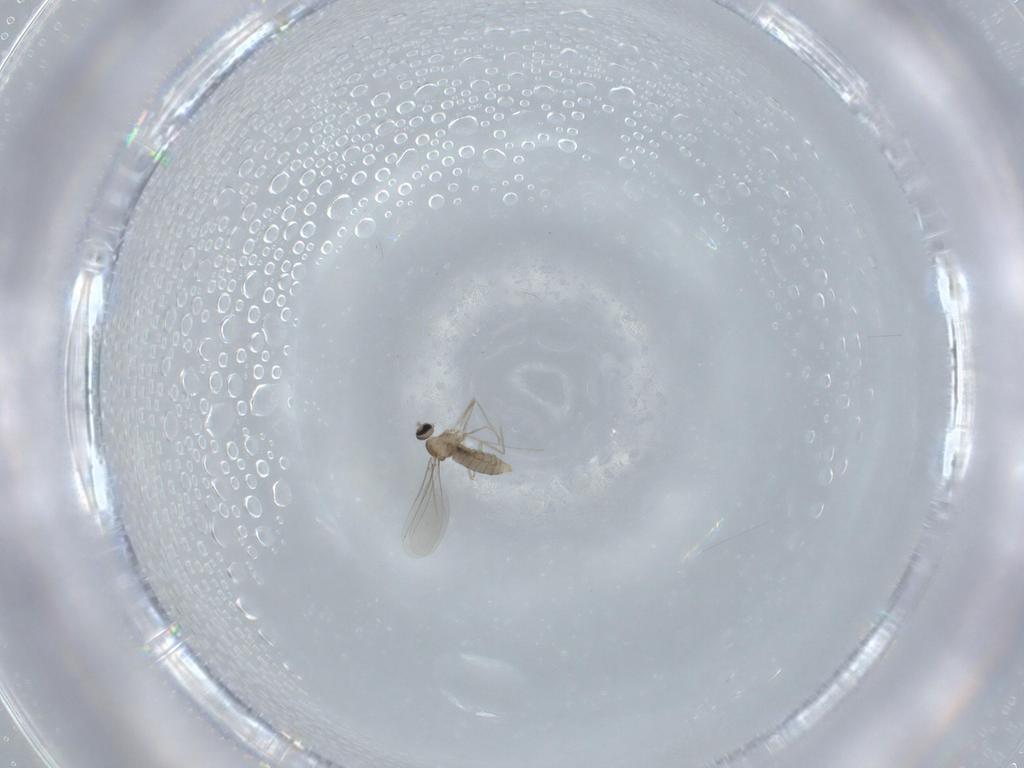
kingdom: Animalia
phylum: Arthropoda
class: Insecta
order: Diptera
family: Cecidomyiidae
